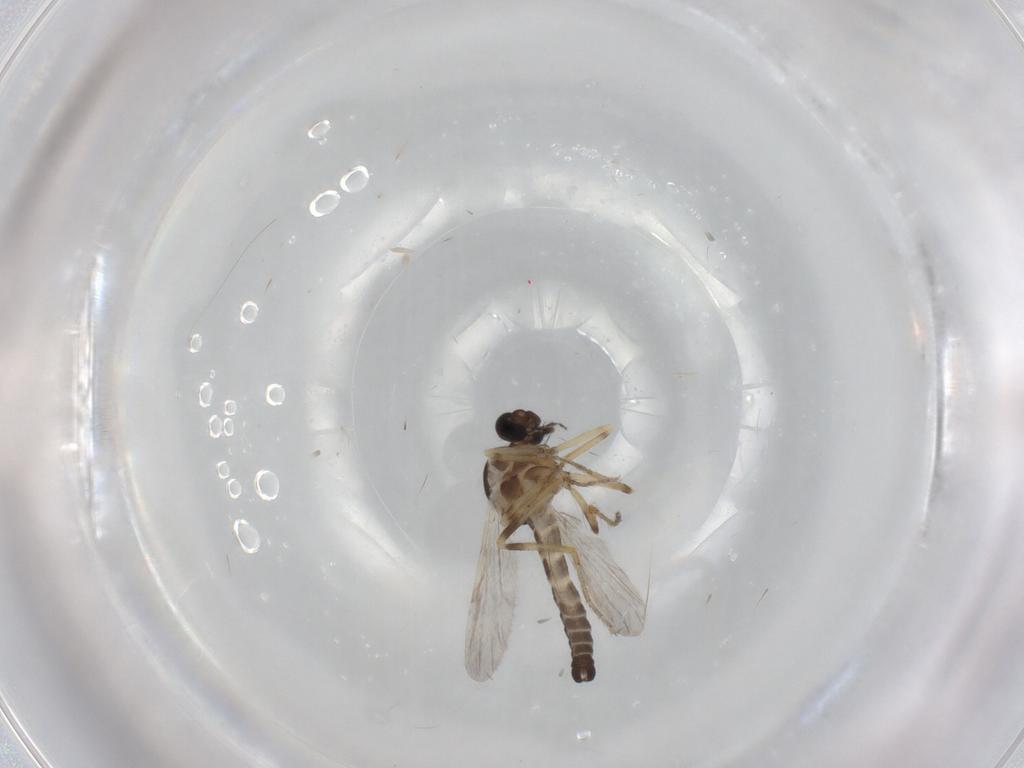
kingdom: Animalia
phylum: Arthropoda
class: Insecta
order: Diptera
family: Ceratopogonidae
